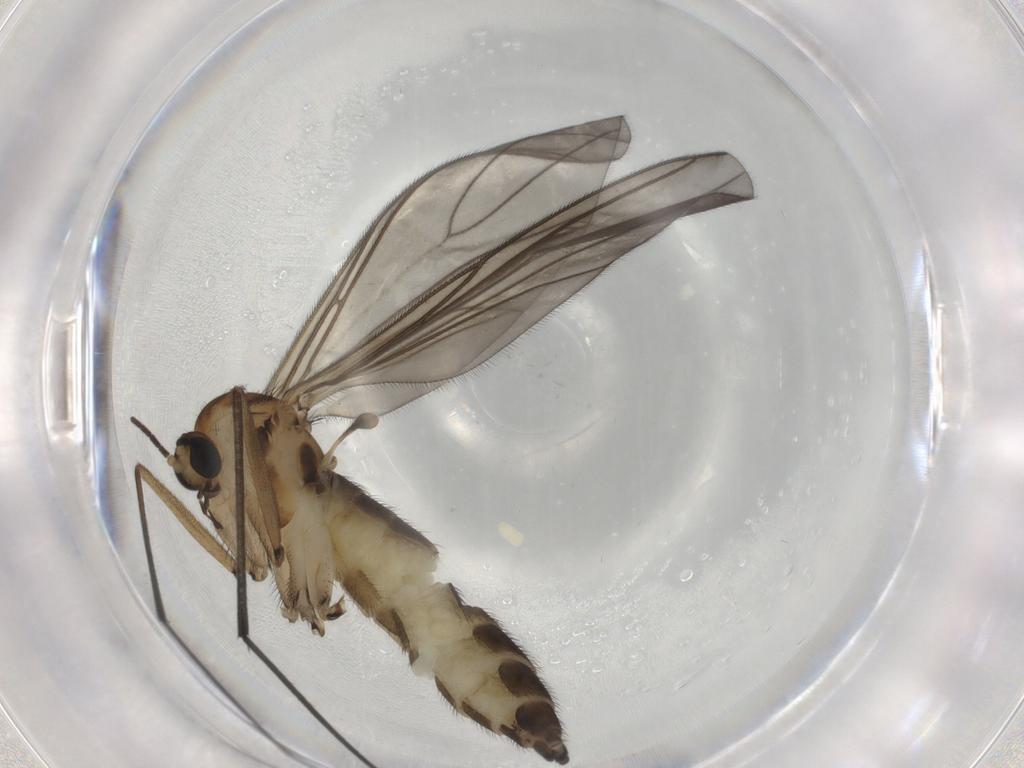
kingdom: Animalia
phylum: Arthropoda
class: Insecta
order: Diptera
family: Sciaridae
